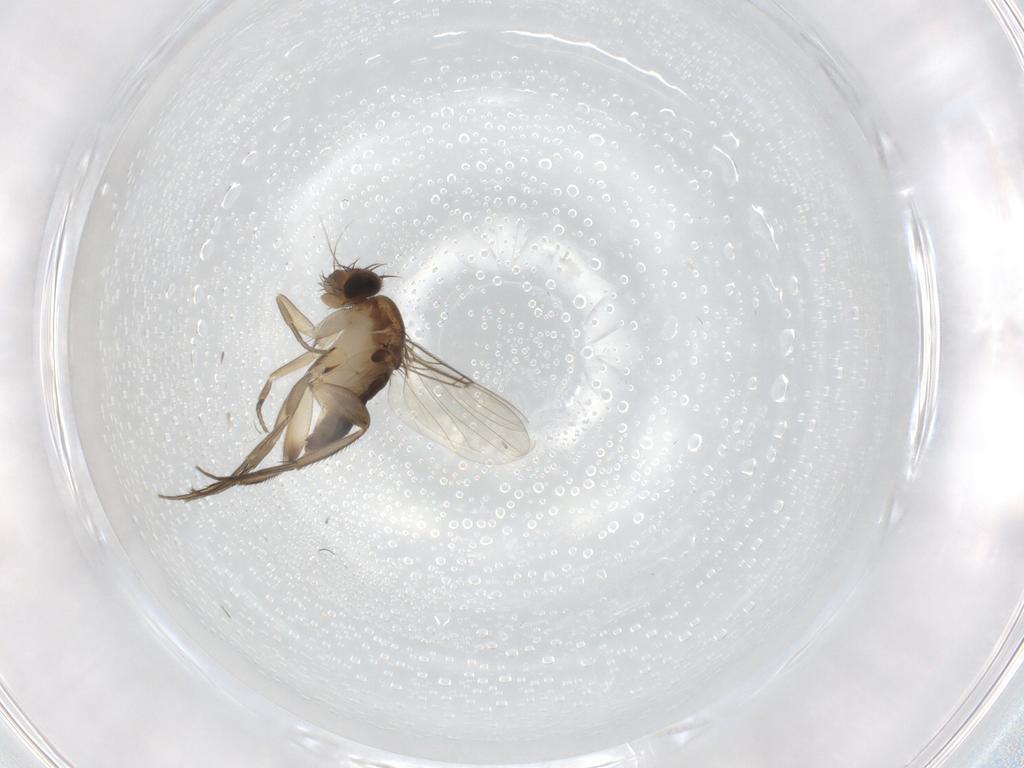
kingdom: Animalia
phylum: Arthropoda
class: Insecta
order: Diptera
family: Phoridae
